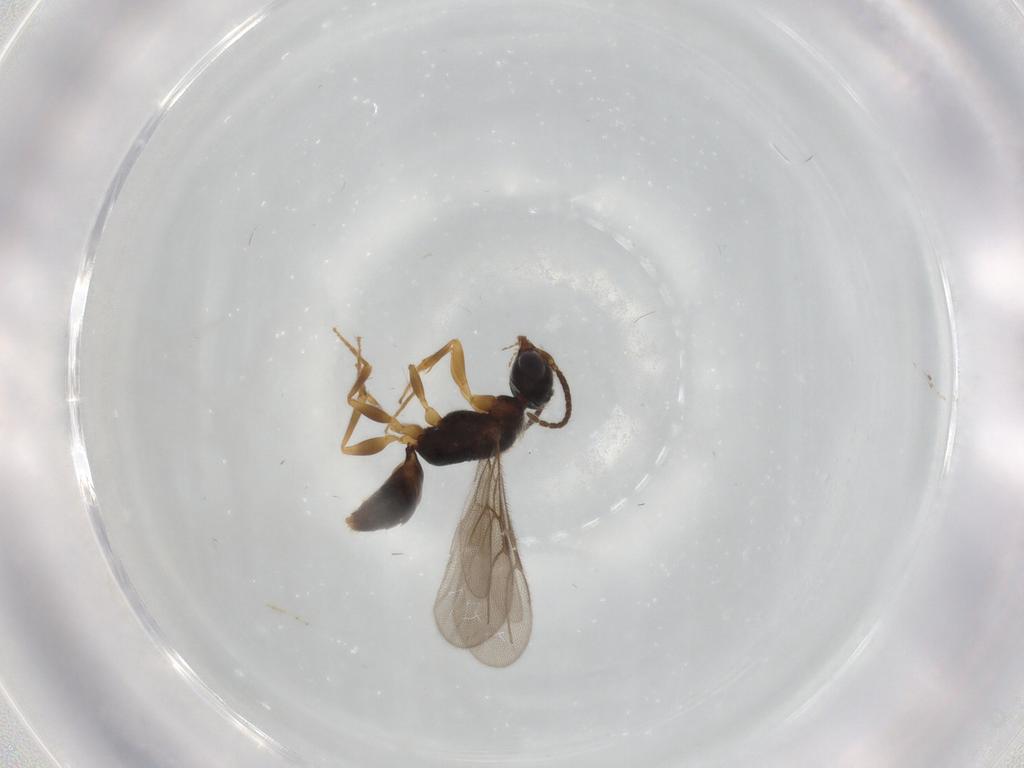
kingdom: Animalia
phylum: Arthropoda
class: Insecta
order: Hymenoptera
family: Bethylidae
